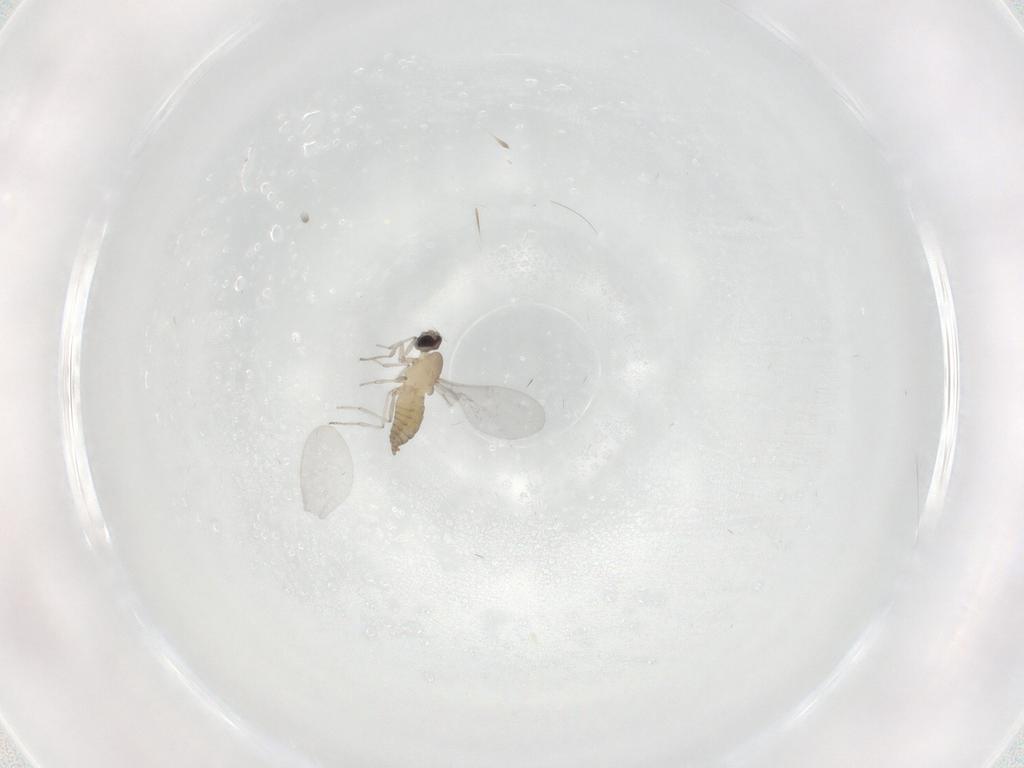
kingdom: Animalia
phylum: Arthropoda
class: Insecta
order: Diptera
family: Cecidomyiidae
